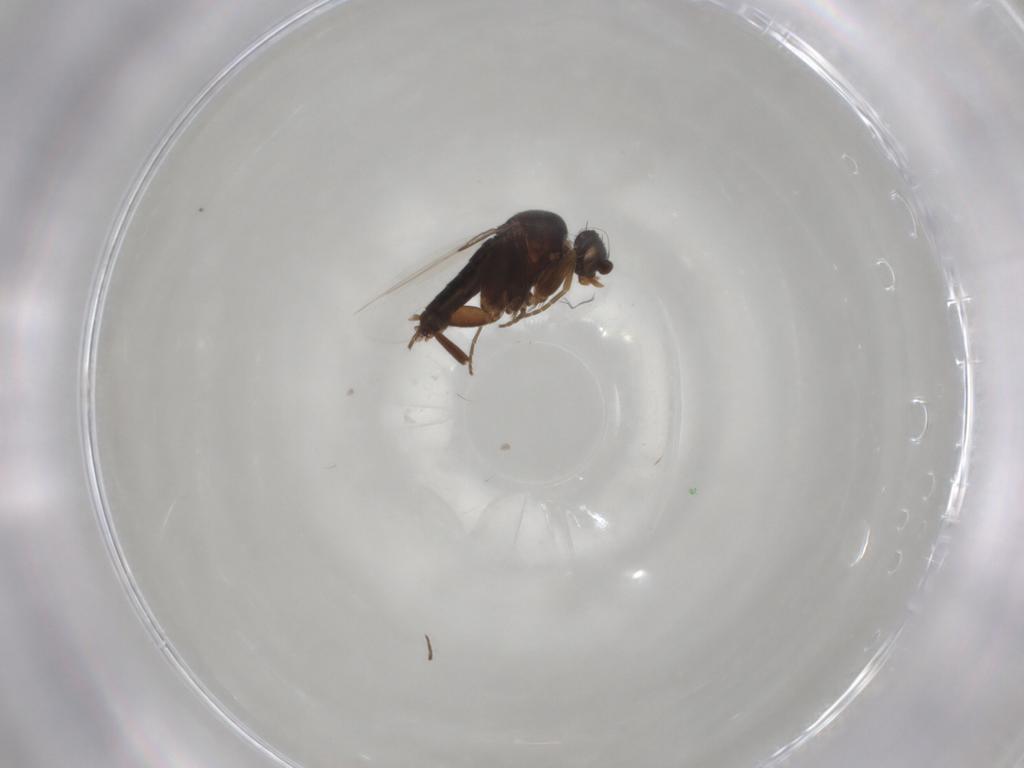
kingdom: Animalia
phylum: Arthropoda
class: Insecta
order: Diptera
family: Phoridae
